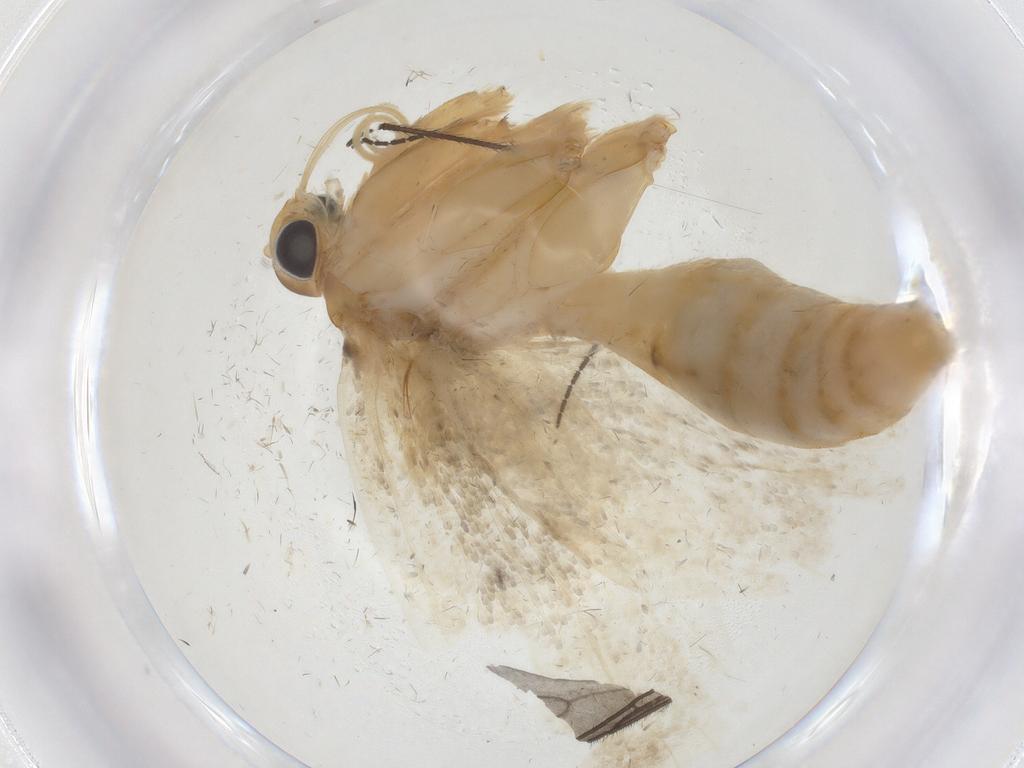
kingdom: Animalia
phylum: Arthropoda
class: Insecta
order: Lepidoptera
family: Oecophoridae
